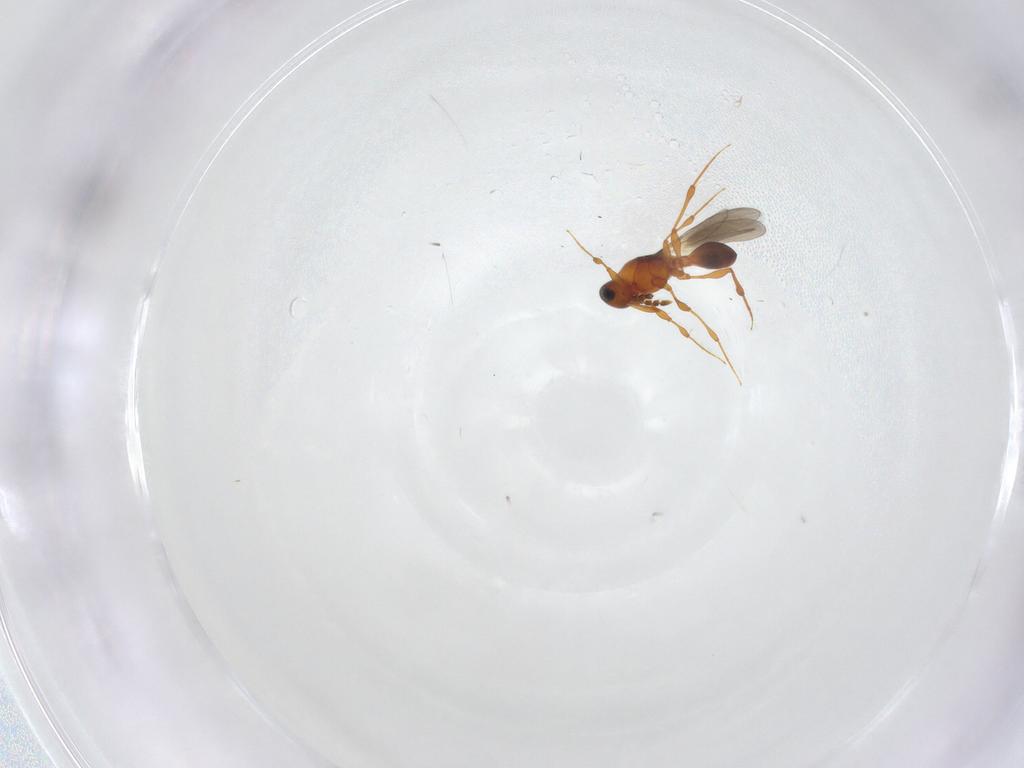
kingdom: Animalia
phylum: Arthropoda
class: Insecta
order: Hymenoptera
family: Platygastridae
